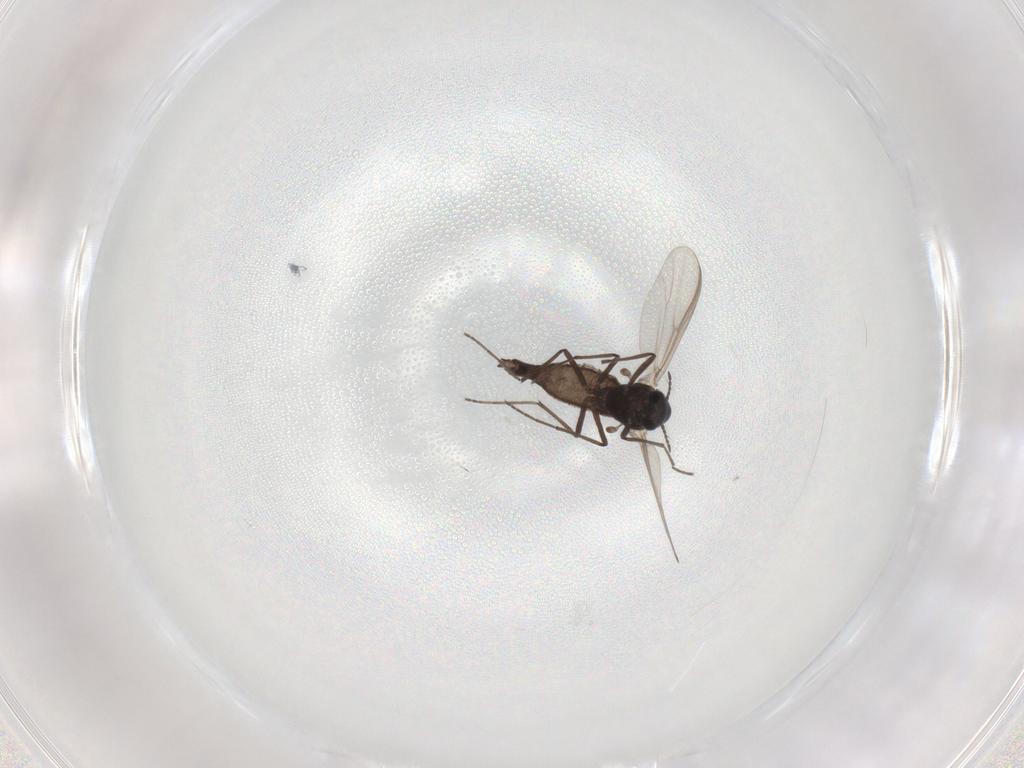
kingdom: Animalia
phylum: Arthropoda
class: Insecta
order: Diptera
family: Chironomidae
